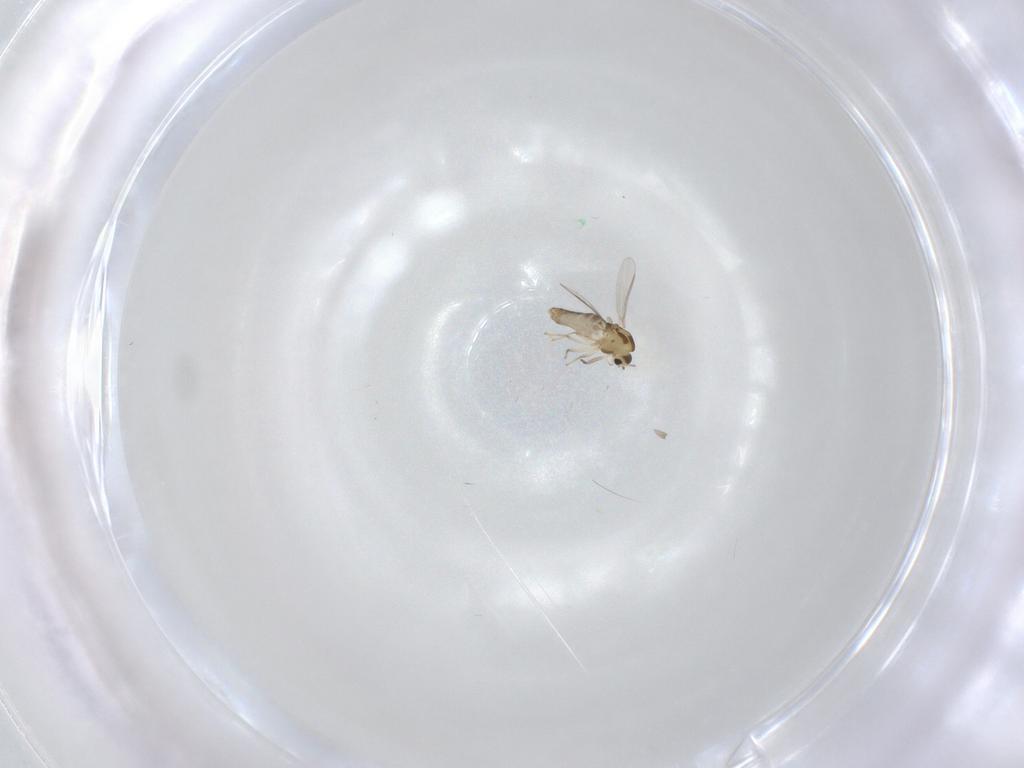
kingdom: Animalia
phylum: Arthropoda
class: Insecta
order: Diptera
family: Chironomidae
